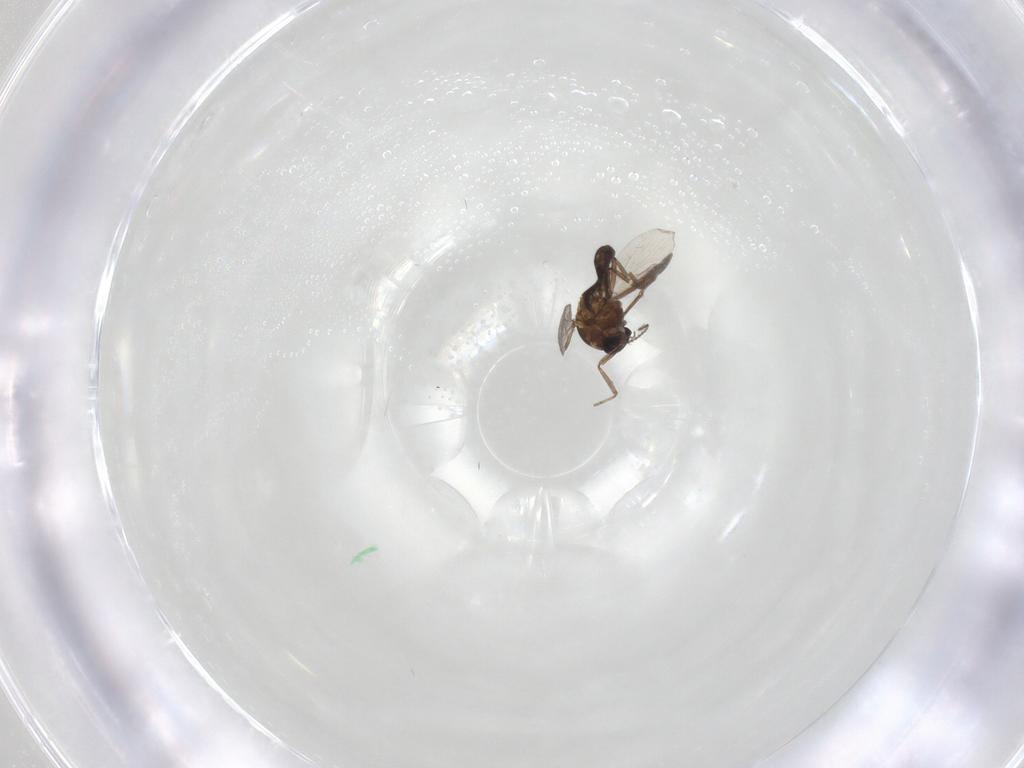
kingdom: Animalia
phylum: Arthropoda
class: Insecta
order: Diptera
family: Ceratopogonidae
